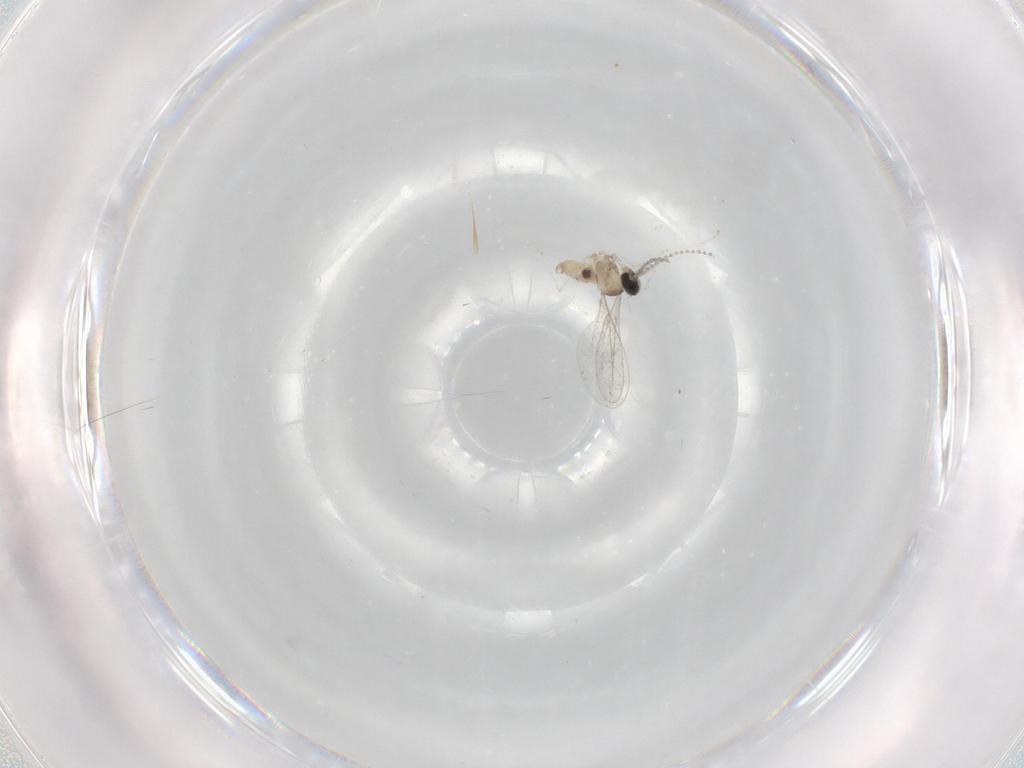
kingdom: Animalia
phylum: Arthropoda
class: Insecta
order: Diptera
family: Cecidomyiidae
